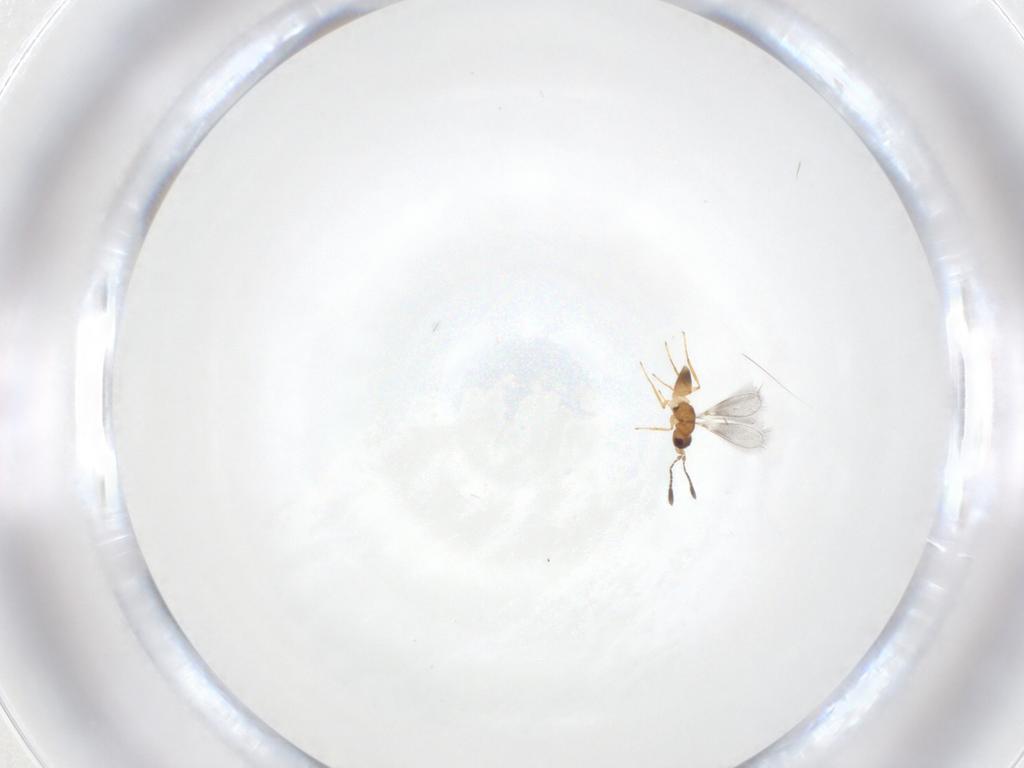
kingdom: Animalia
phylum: Arthropoda
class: Insecta
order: Hymenoptera
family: Mymaridae
